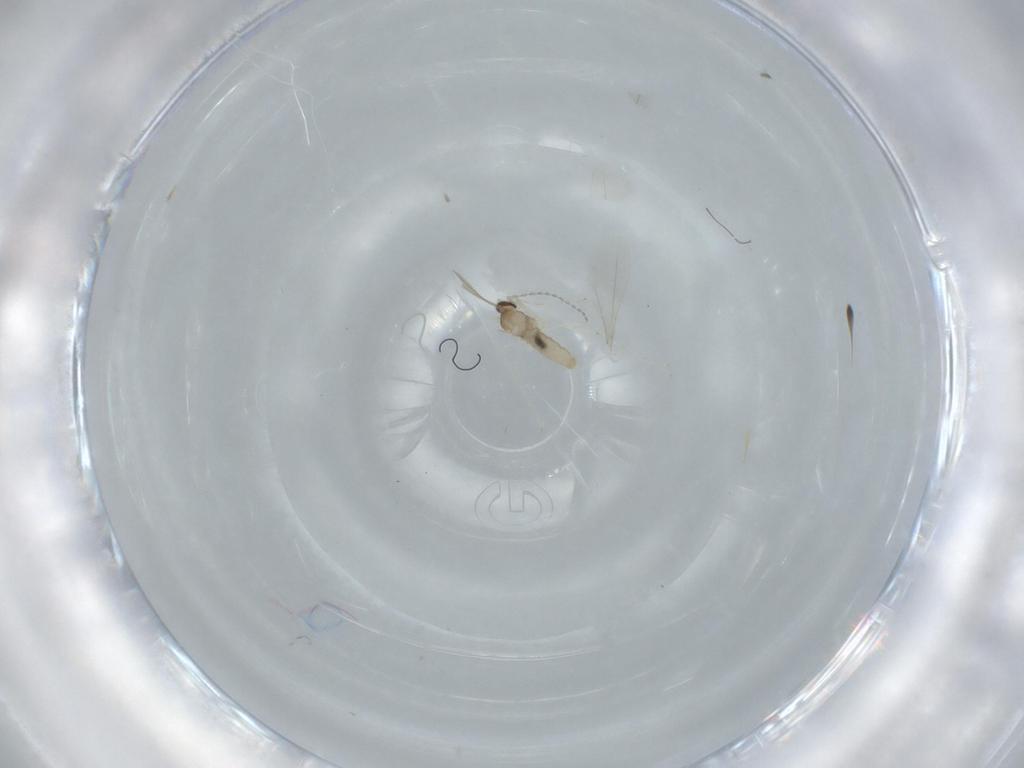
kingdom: Animalia
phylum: Arthropoda
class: Insecta
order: Diptera
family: Cecidomyiidae
